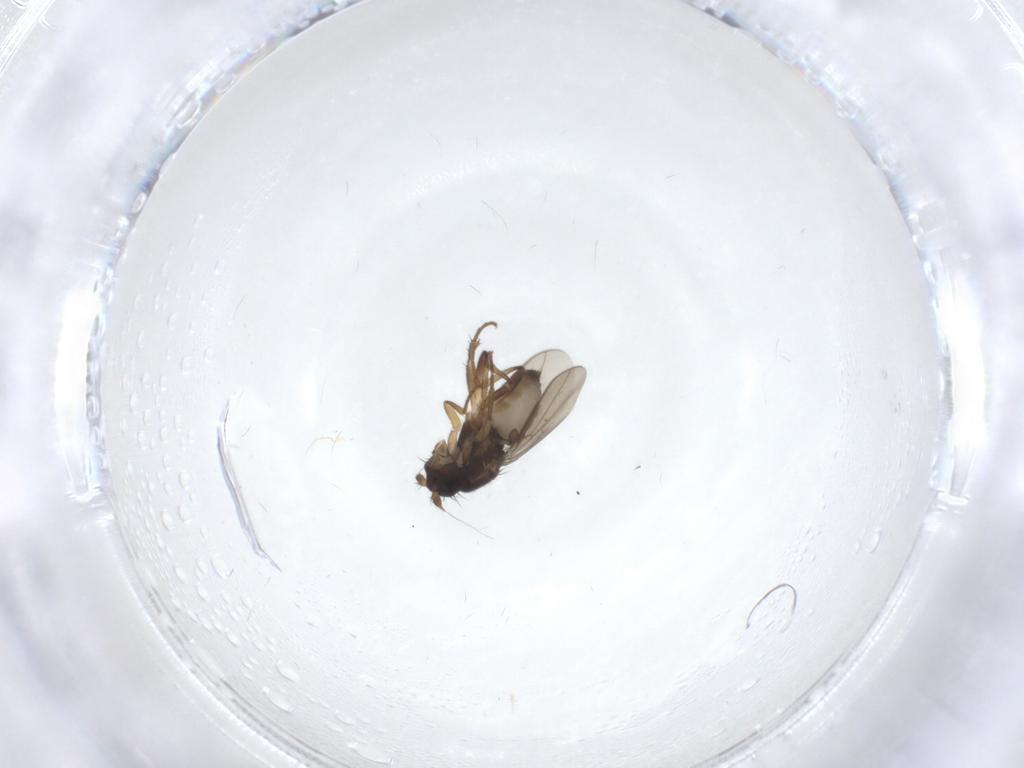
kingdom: Animalia
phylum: Arthropoda
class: Insecta
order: Diptera
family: Sphaeroceridae
